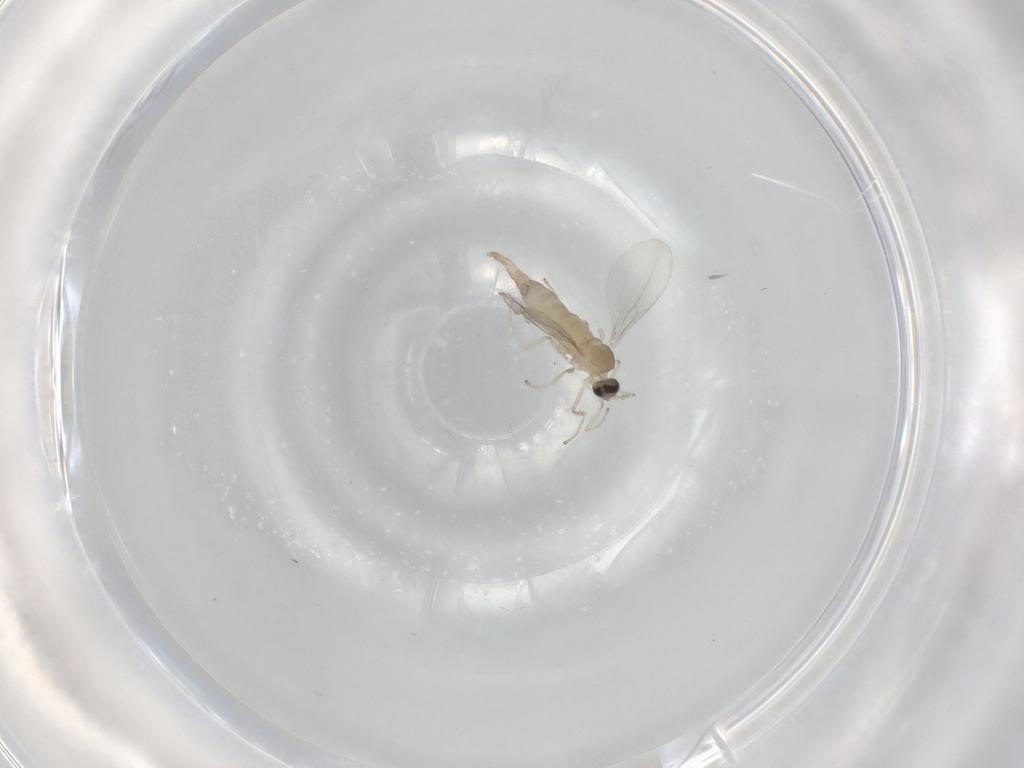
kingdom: Animalia
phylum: Arthropoda
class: Insecta
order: Diptera
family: Cecidomyiidae
